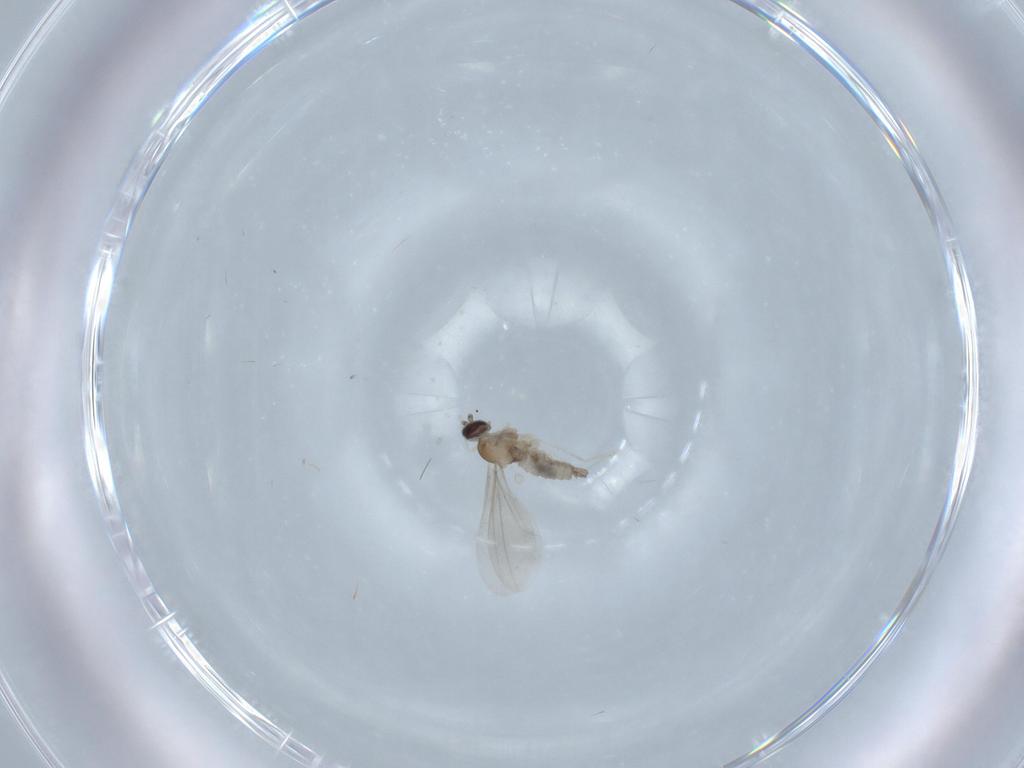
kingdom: Animalia
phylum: Arthropoda
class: Insecta
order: Diptera
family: Cecidomyiidae
